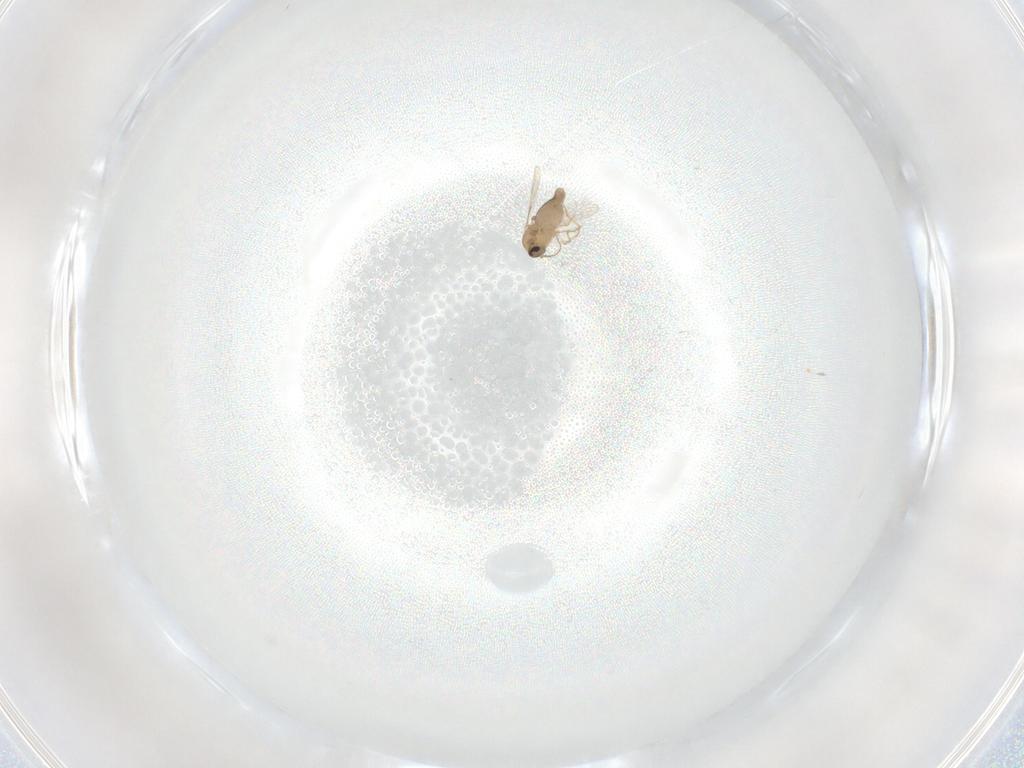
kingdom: Animalia
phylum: Arthropoda
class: Insecta
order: Diptera
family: Ceratopogonidae
